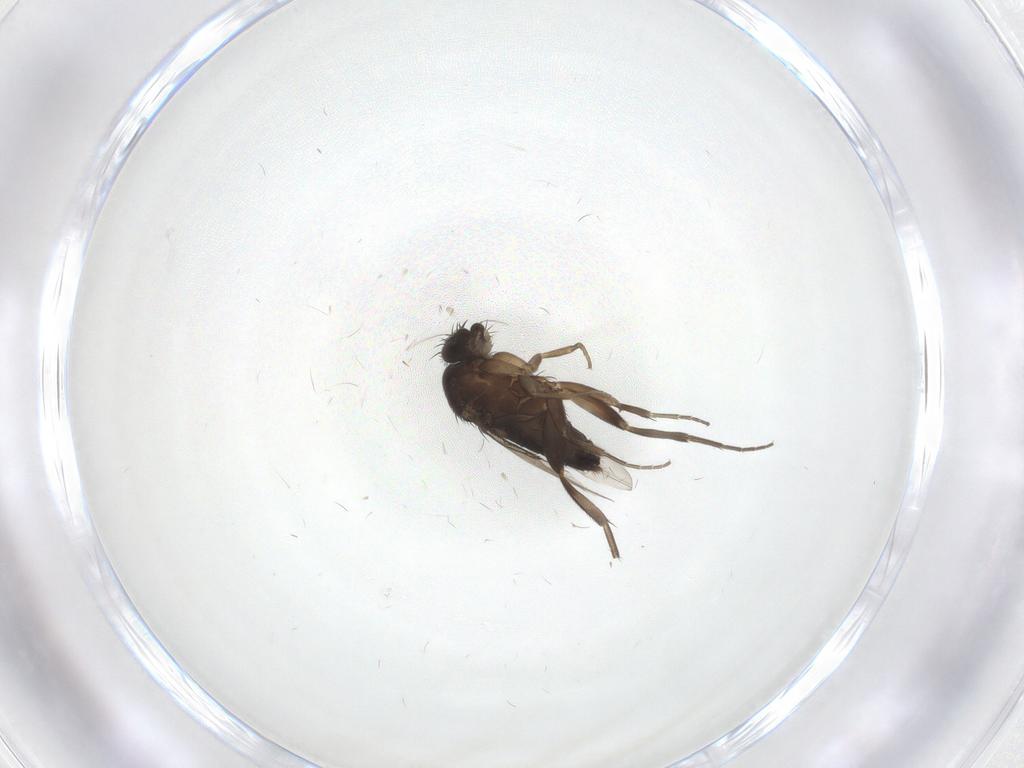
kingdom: Animalia
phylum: Arthropoda
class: Insecta
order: Diptera
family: Phoridae
